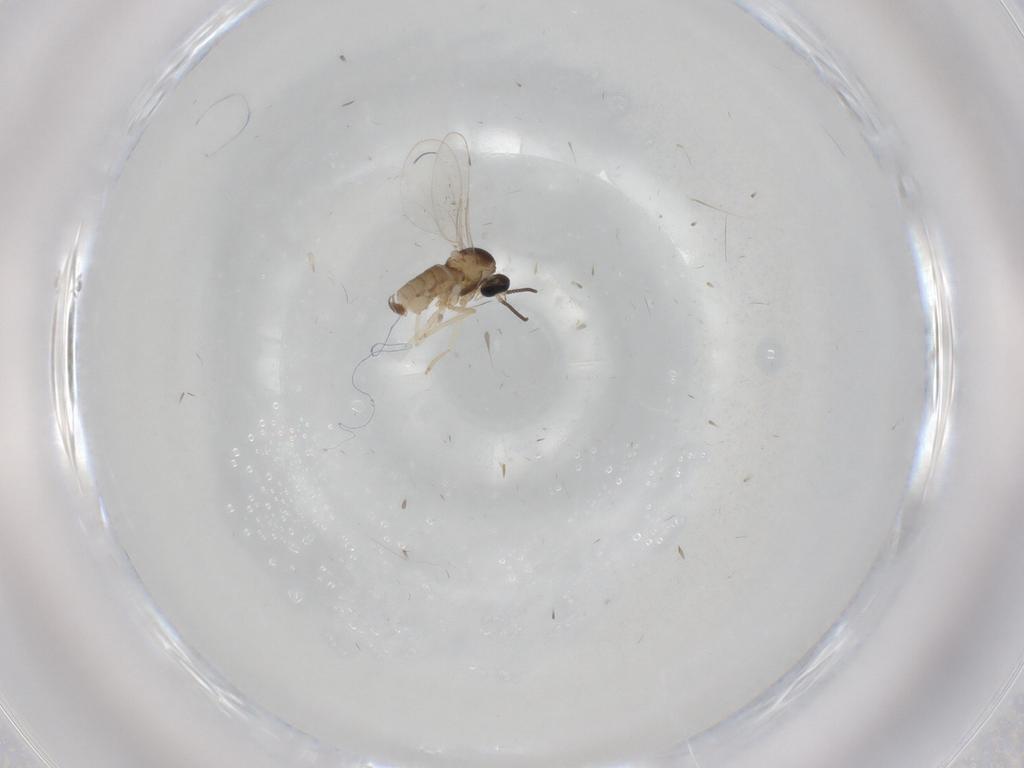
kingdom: Animalia
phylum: Arthropoda
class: Insecta
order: Diptera
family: Cecidomyiidae
